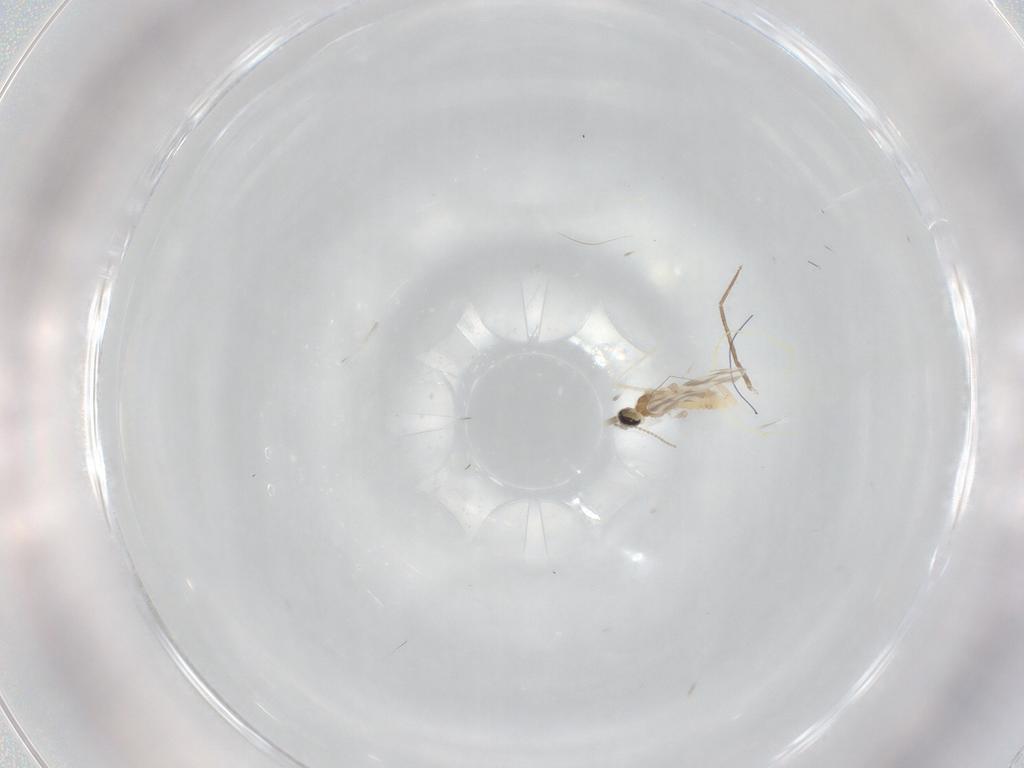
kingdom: Animalia
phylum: Arthropoda
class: Insecta
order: Diptera
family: Cecidomyiidae
